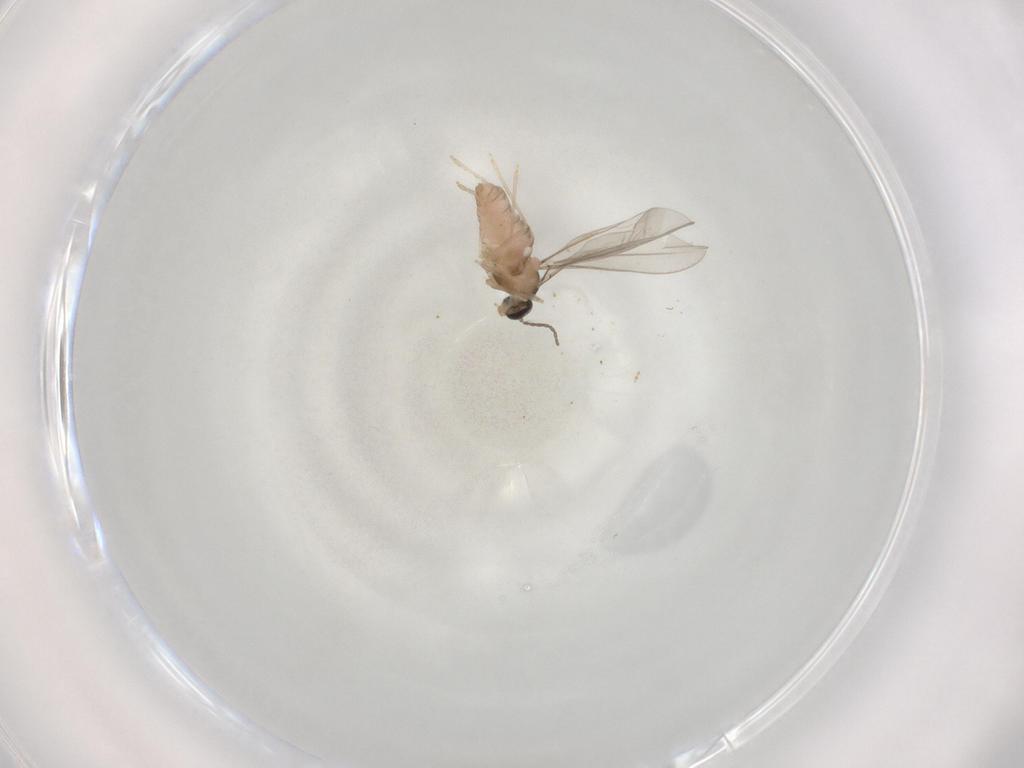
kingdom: Animalia
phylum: Arthropoda
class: Insecta
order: Diptera
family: Cecidomyiidae
